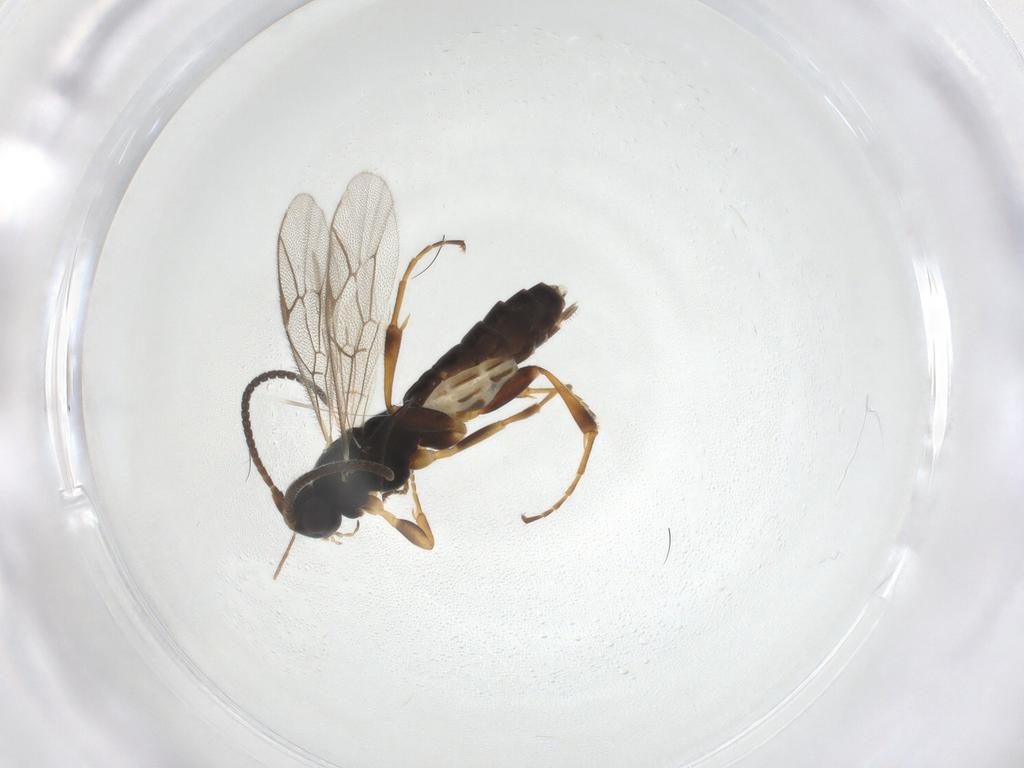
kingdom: Animalia
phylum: Arthropoda
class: Insecta
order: Hymenoptera
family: Ichneumonidae
